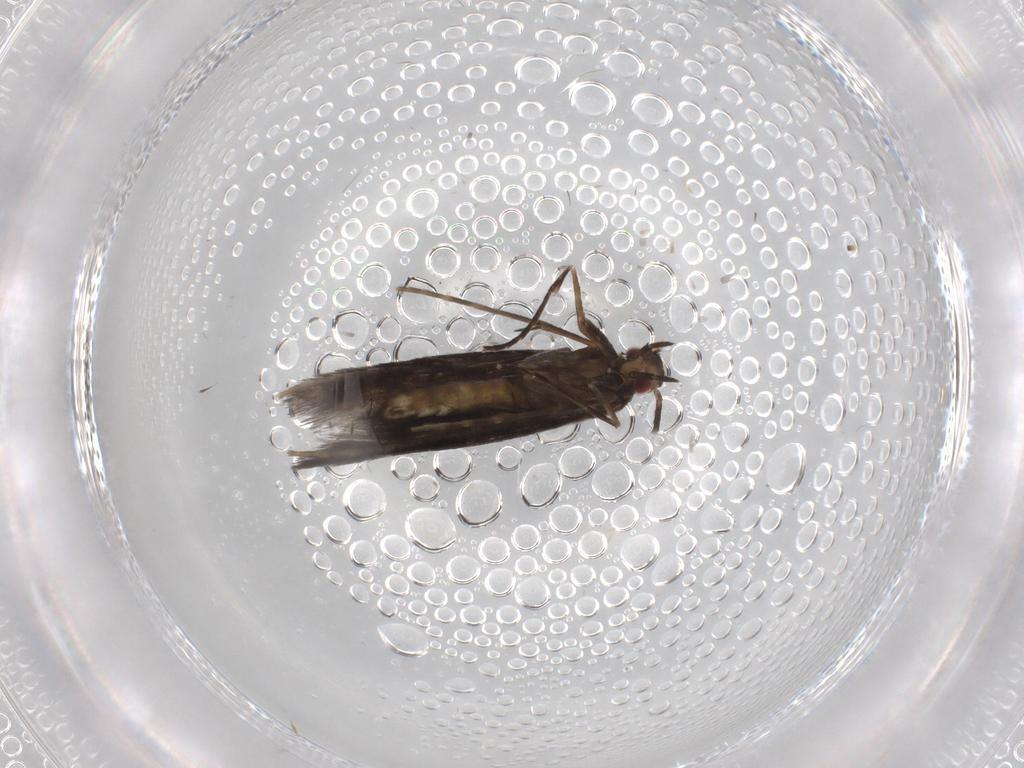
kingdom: Animalia
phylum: Arthropoda
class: Insecta
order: Lepidoptera
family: Gracillariidae
